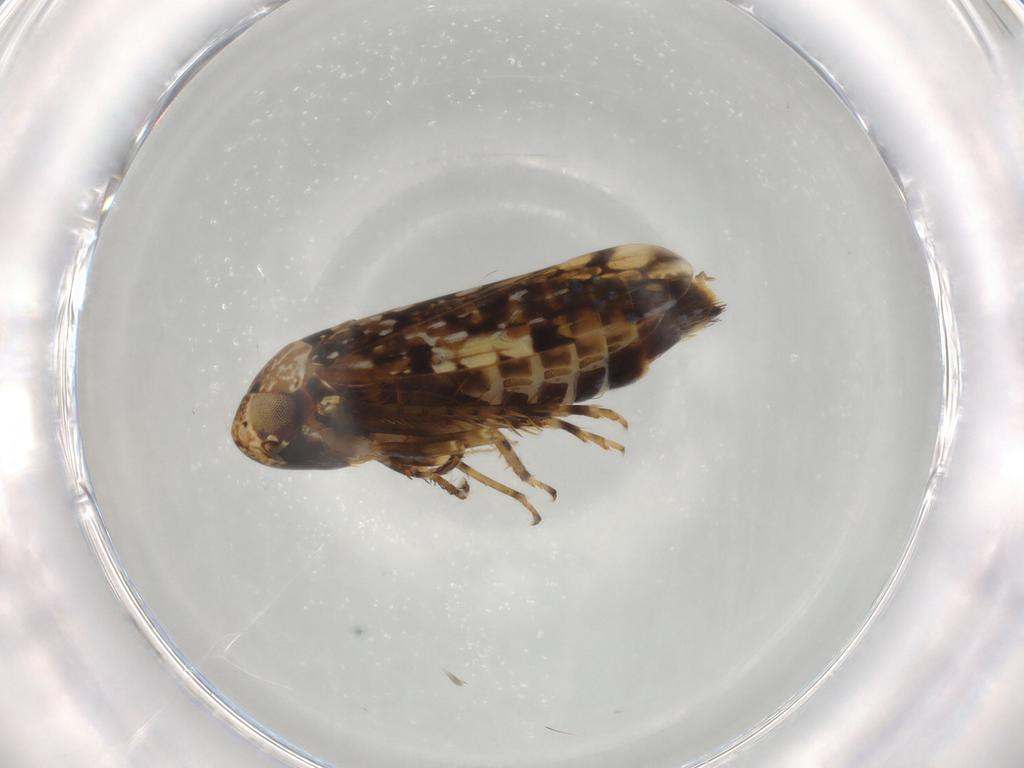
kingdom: Animalia
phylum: Arthropoda
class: Insecta
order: Hemiptera
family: Cicadellidae
